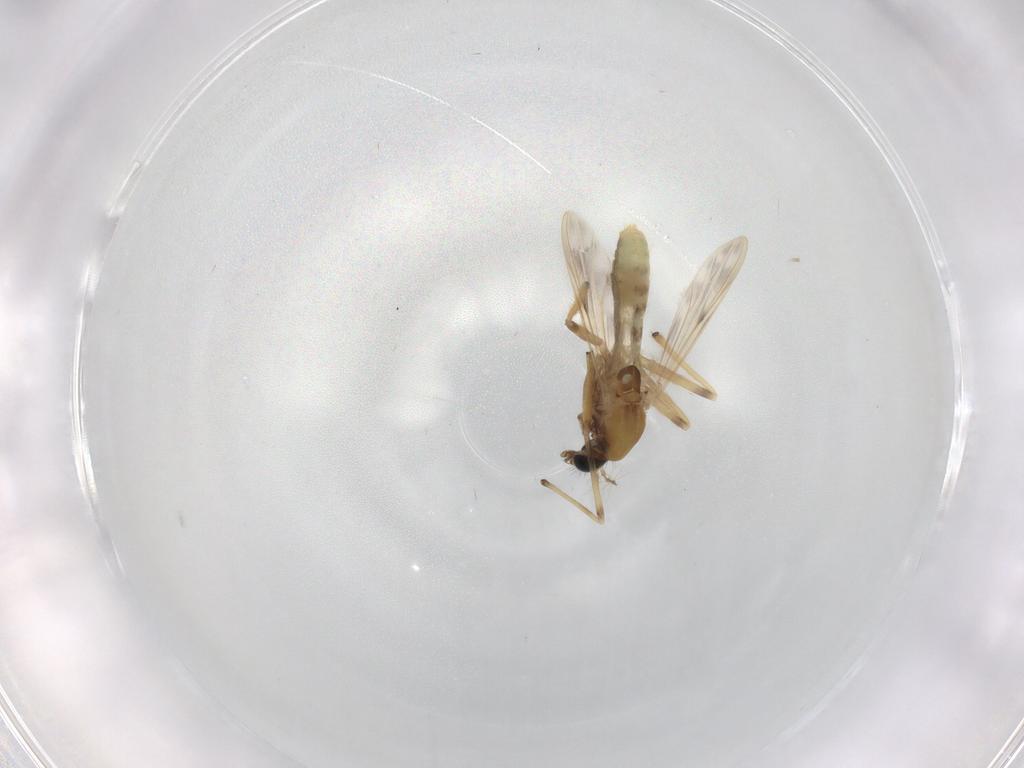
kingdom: Animalia
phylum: Arthropoda
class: Insecta
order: Diptera
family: Chironomidae
